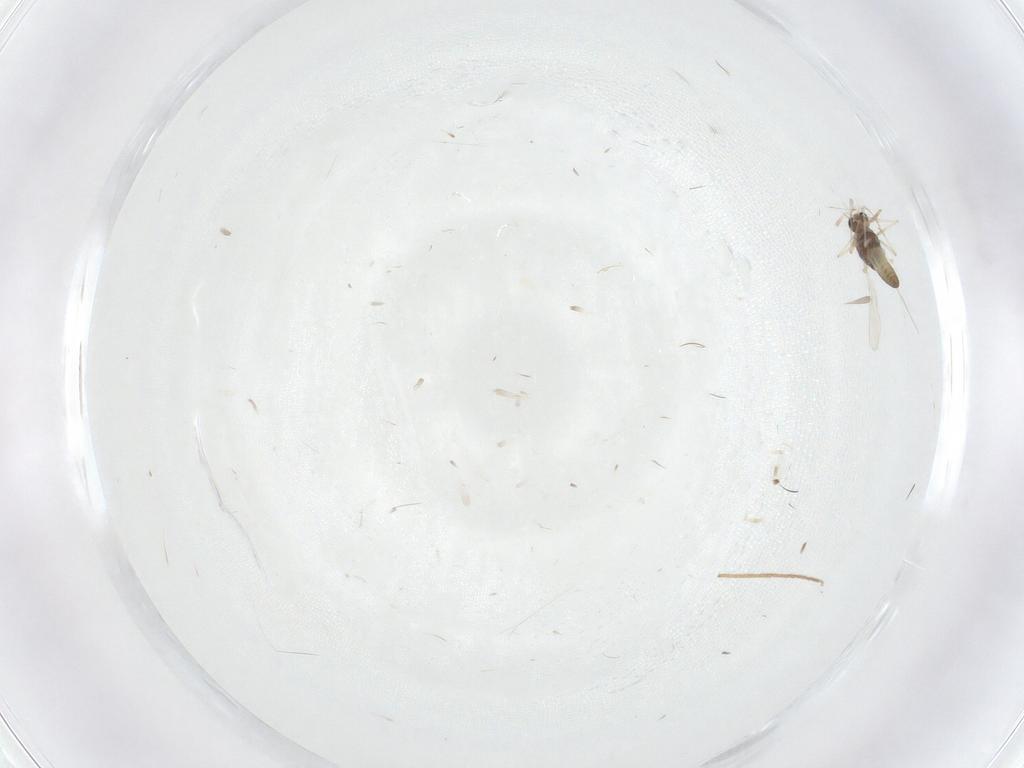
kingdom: Animalia
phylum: Arthropoda
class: Insecta
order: Diptera
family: Chironomidae
